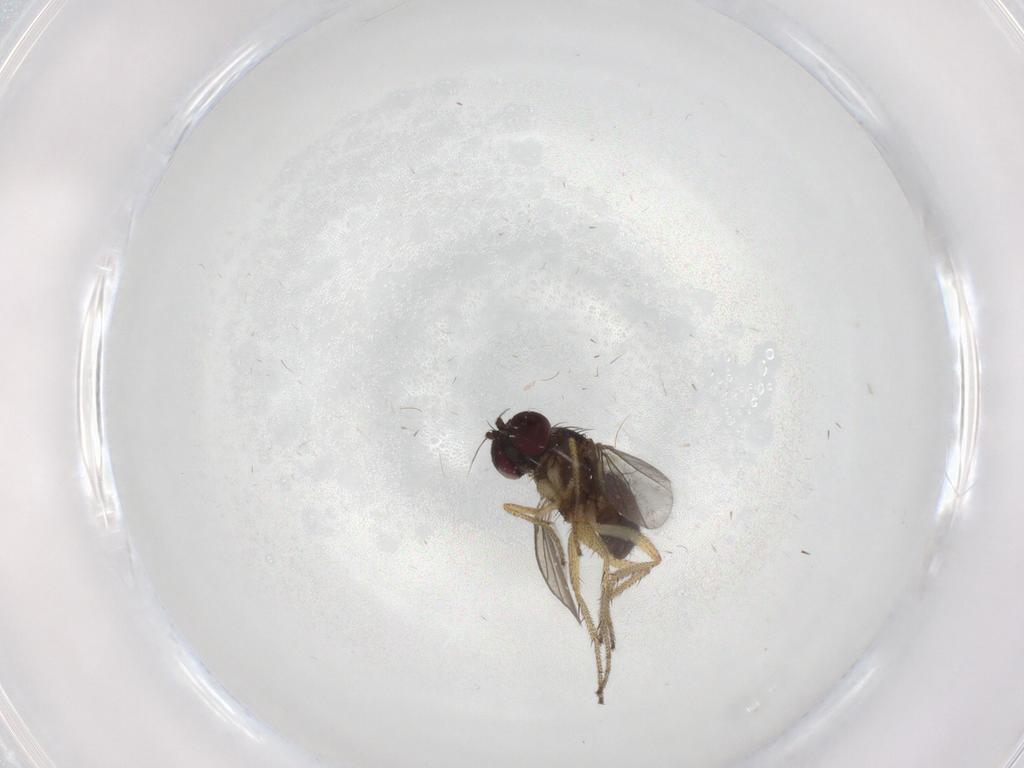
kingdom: Animalia
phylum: Arthropoda
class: Insecta
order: Diptera
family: Dolichopodidae
